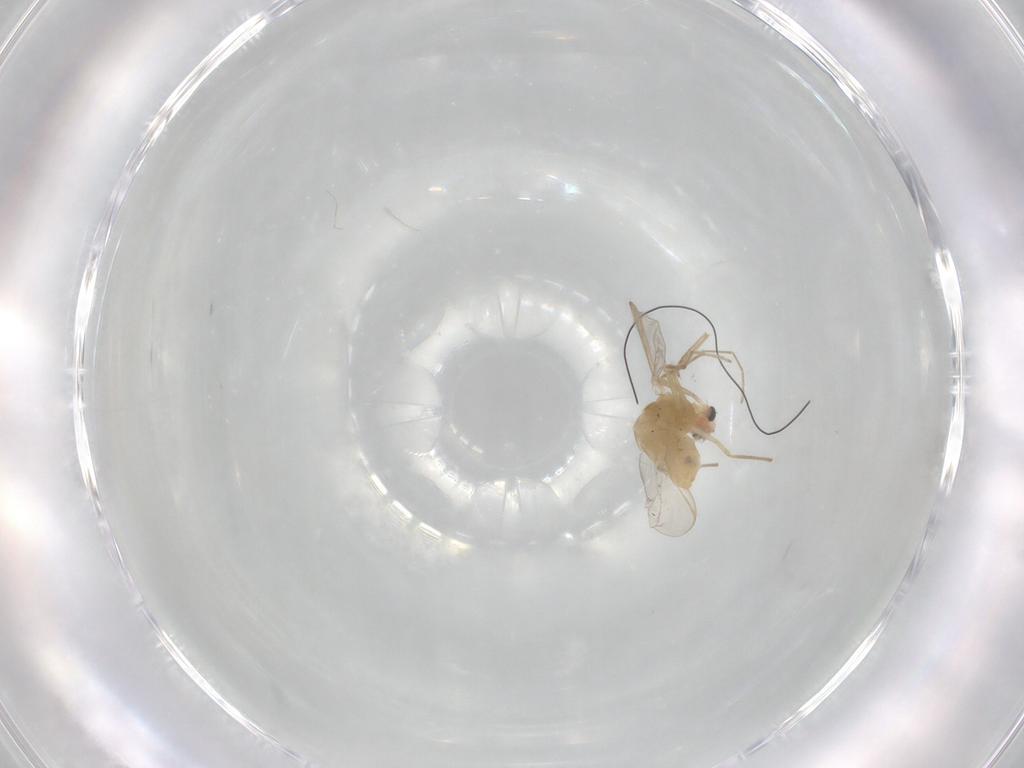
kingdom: Animalia
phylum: Arthropoda
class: Insecta
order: Diptera
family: Chironomidae
